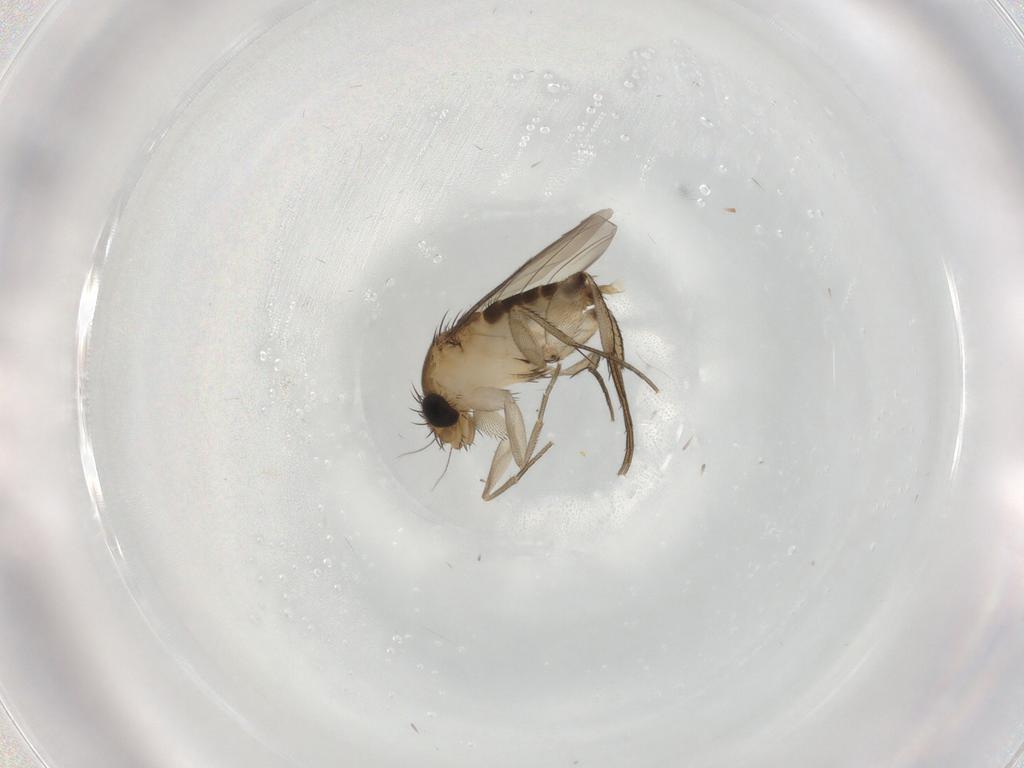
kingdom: Animalia
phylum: Arthropoda
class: Insecta
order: Diptera
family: Phoridae
